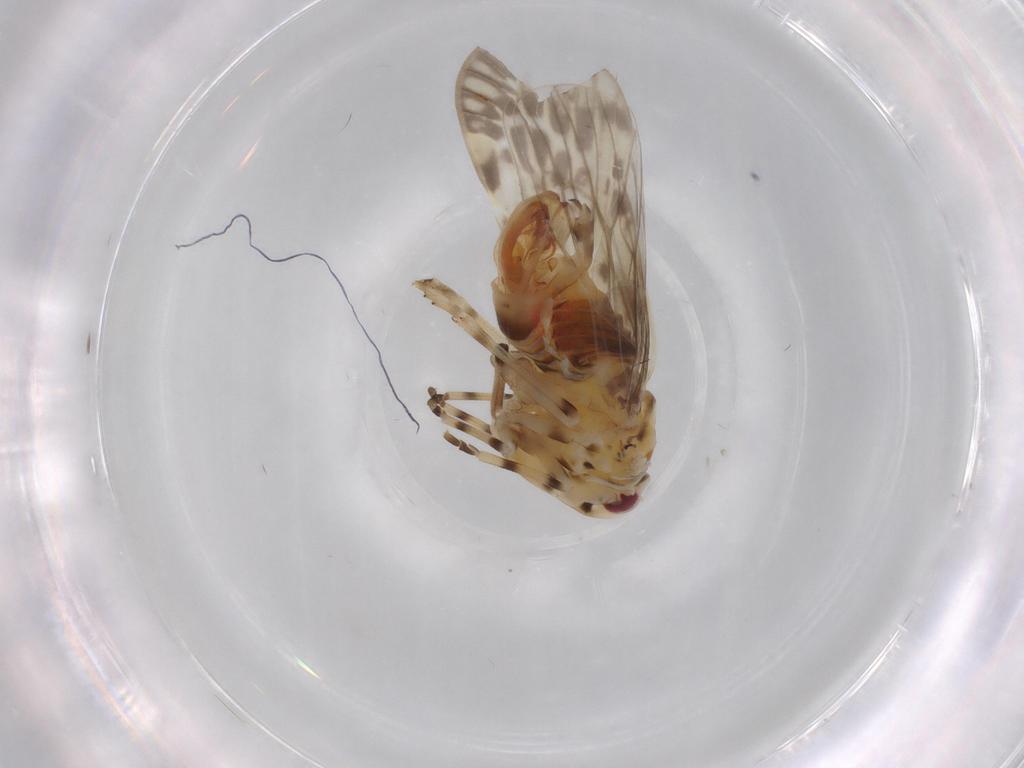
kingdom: Animalia
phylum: Arthropoda
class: Insecta
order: Hemiptera
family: Derbidae
